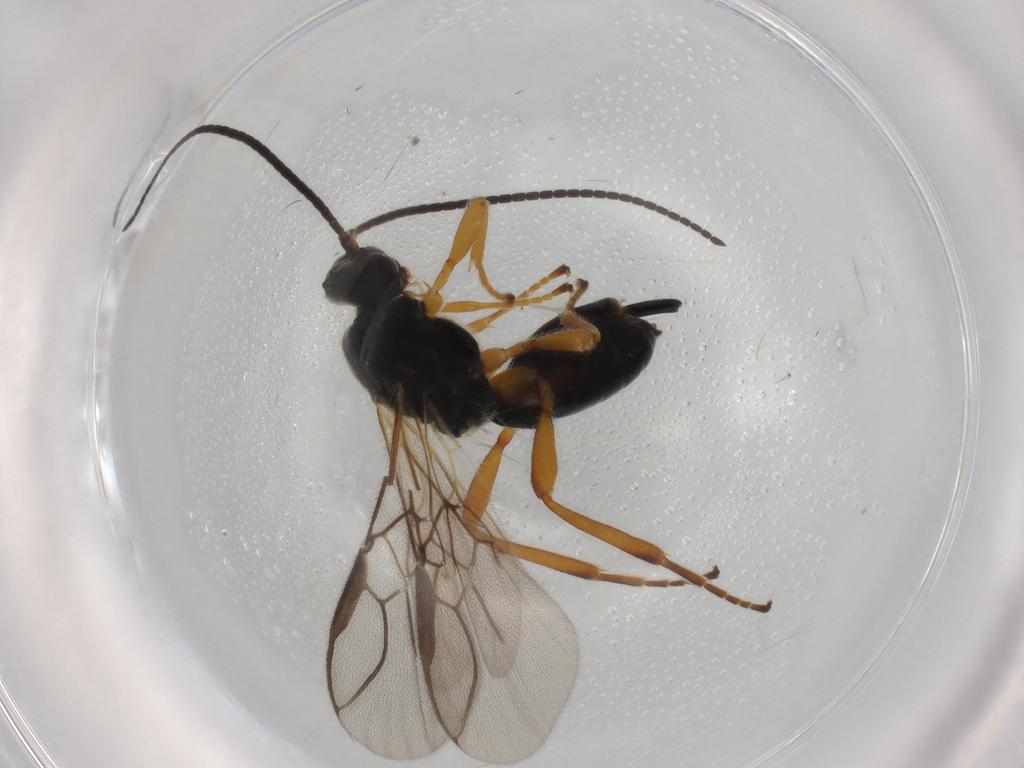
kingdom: Animalia
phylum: Arthropoda
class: Insecta
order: Hymenoptera
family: Braconidae
